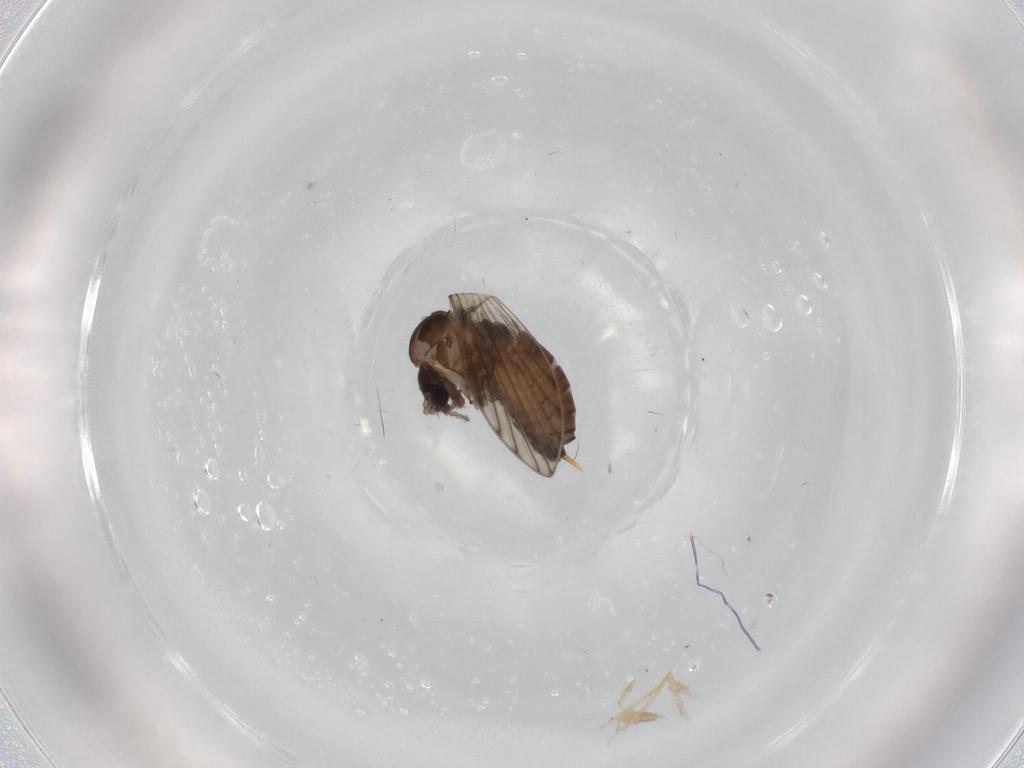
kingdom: Animalia
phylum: Arthropoda
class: Insecta
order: Diptera
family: Psychodidae
